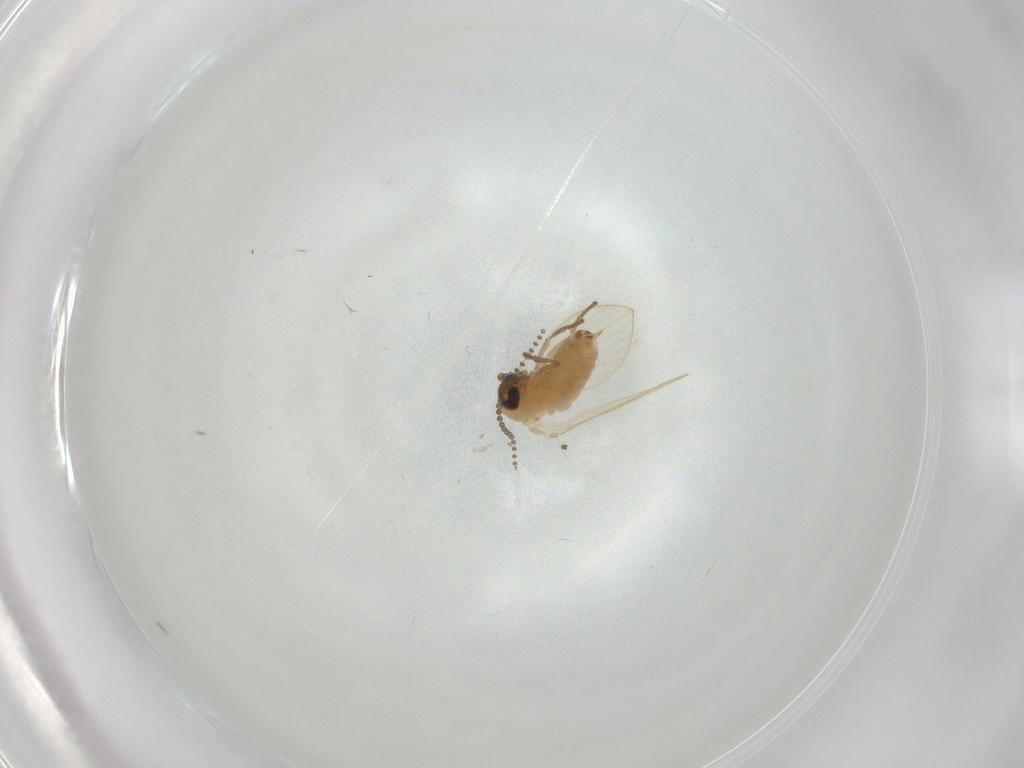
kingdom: Animalia
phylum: Arthropoda
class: Insecta
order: Diptera
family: Psychodidae
